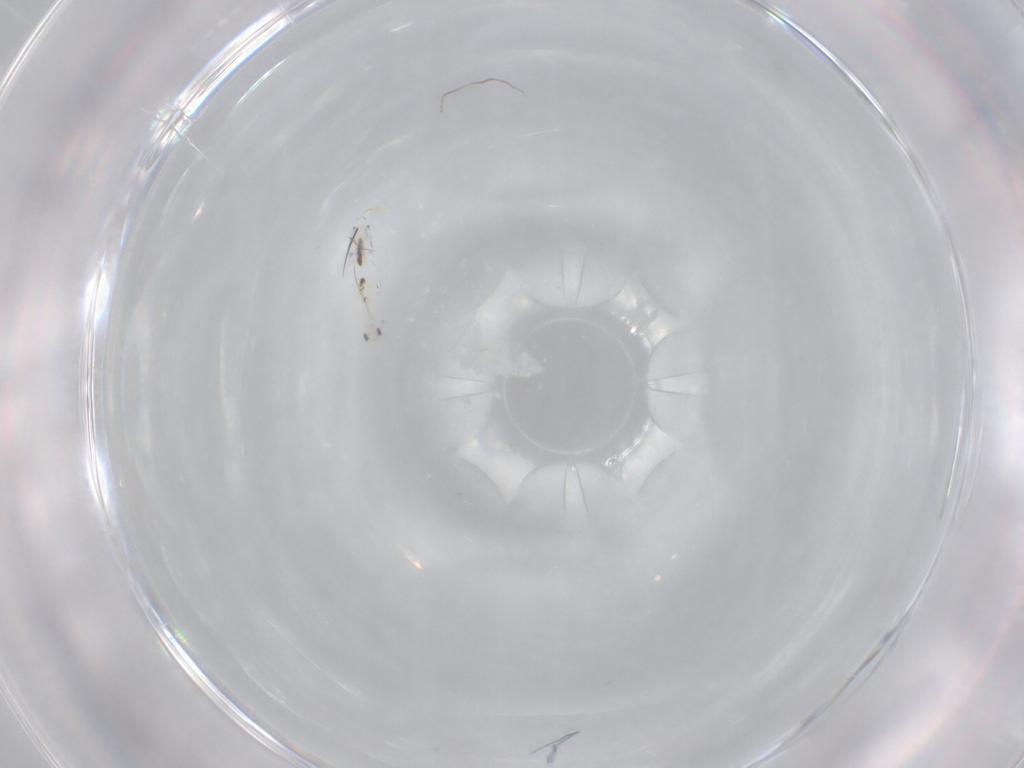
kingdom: Animalia
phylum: Arthropoda
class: Collembola
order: Entomobryomorpha
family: Entomobryidae
